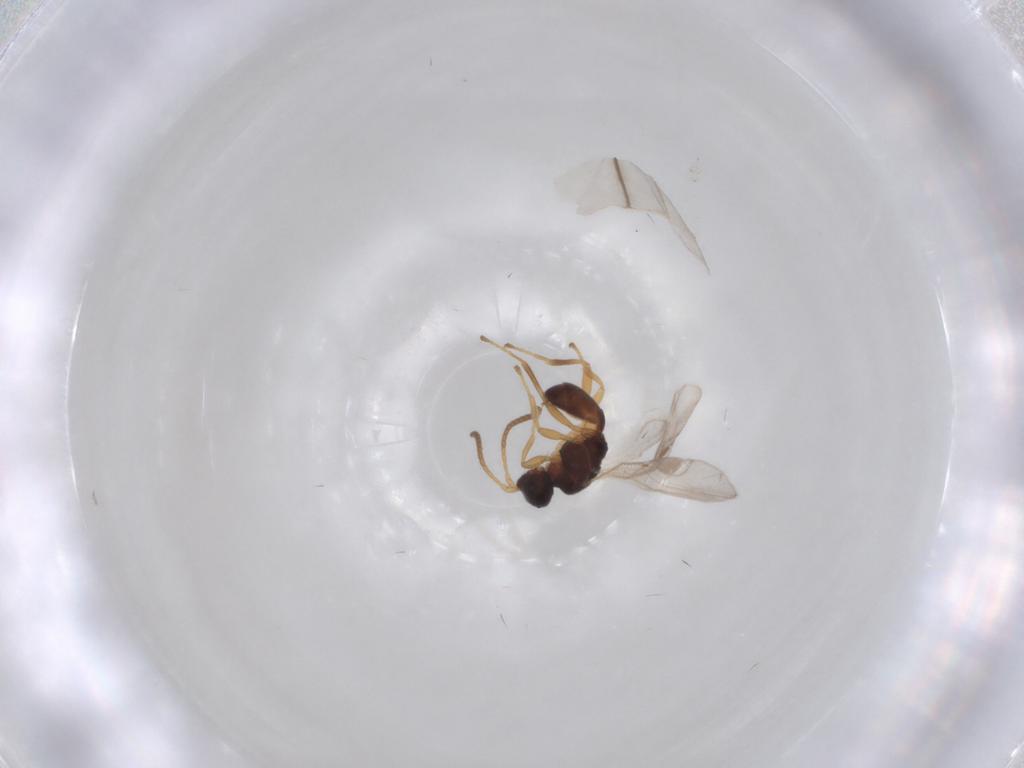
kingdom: Animalia
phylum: Arthropoda
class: Insecta
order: Hymenoptera
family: Braconidae
